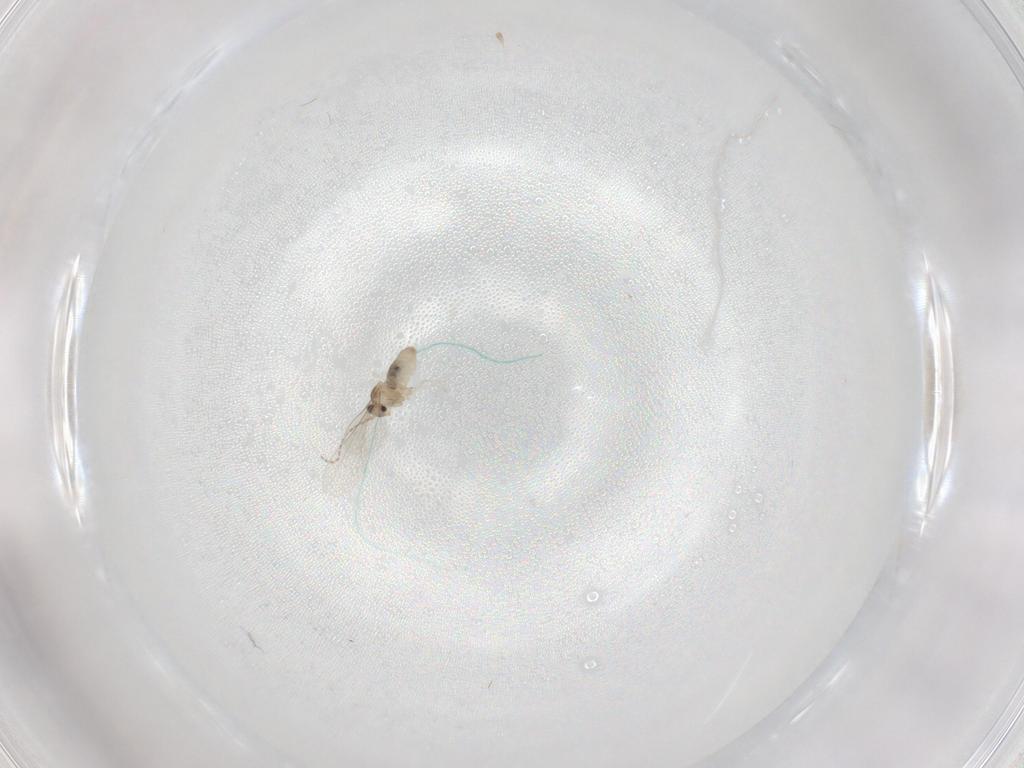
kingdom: Animalia
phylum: Arthropoda
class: Insecta
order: Diptera
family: Cecidomyiidae
